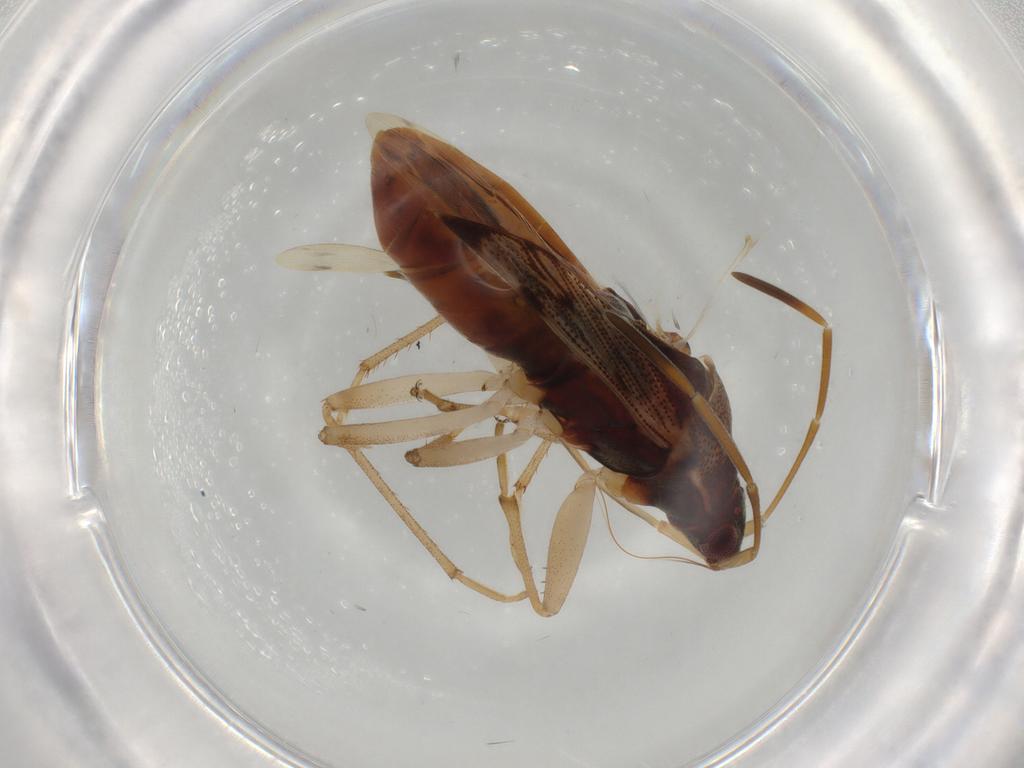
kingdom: Animalia
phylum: Arthropoda
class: Insecta
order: Hemiptera
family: Rhyparochromidae
